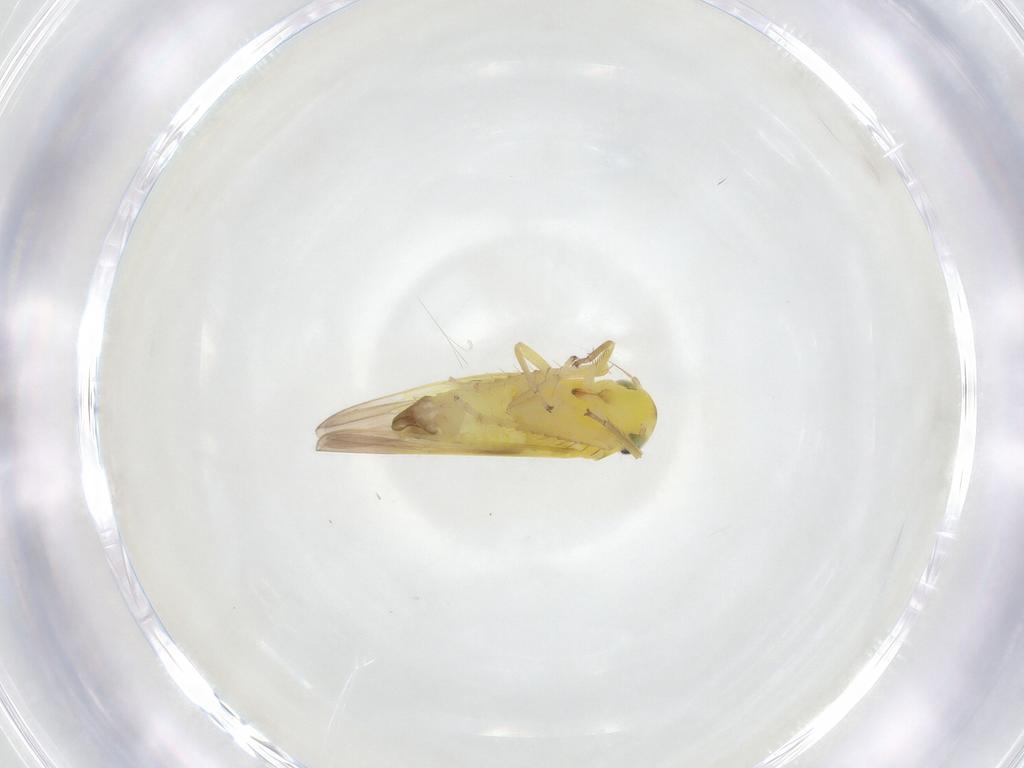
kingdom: Animalia
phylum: Arthropoda
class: Insecta
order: Hemiptera
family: Cicadellidae
